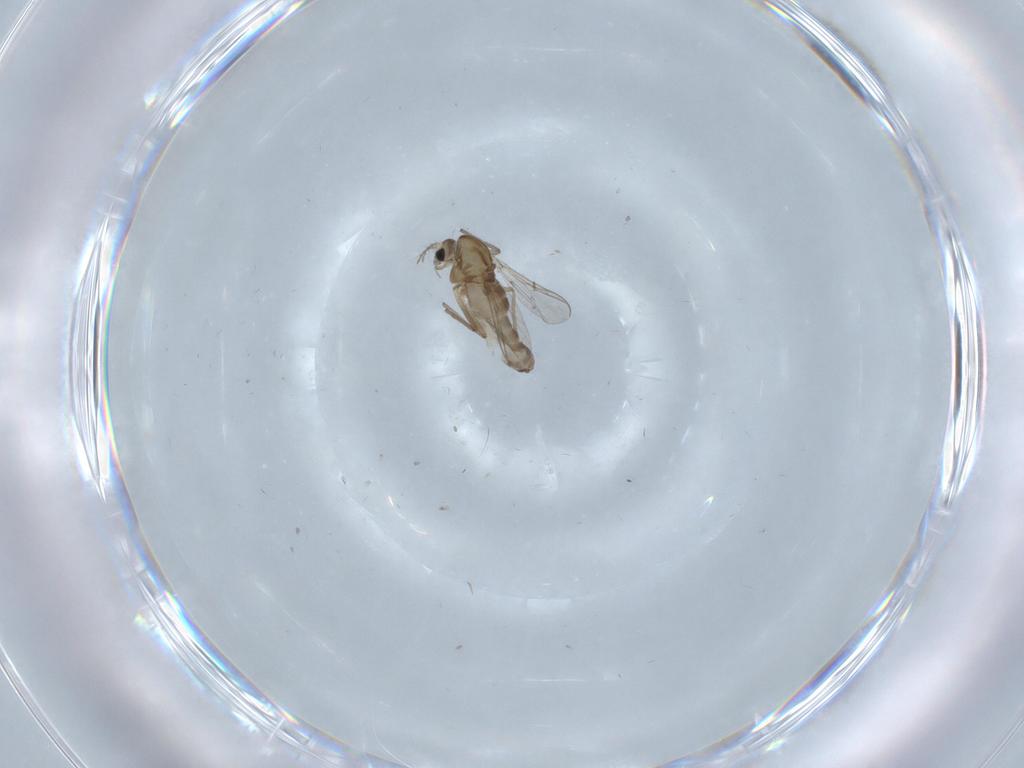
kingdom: Animalia
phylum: Arthropoda
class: Insecta
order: Diptera
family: Chironomidae
